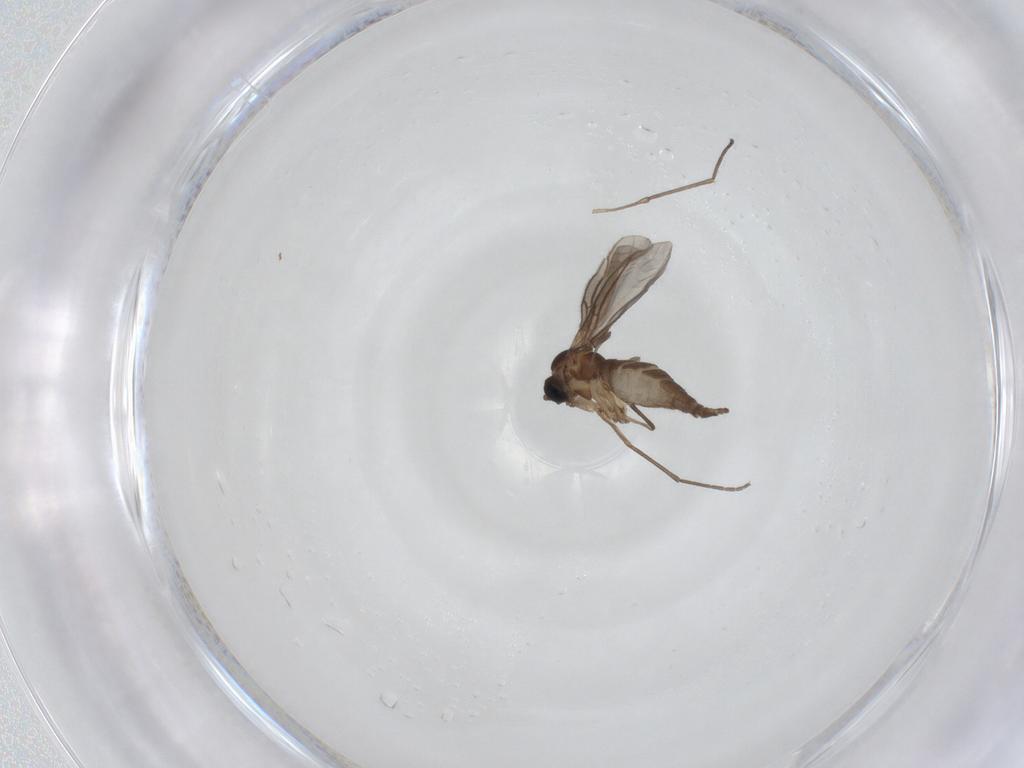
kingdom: Animalia
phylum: Arthropoda
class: Insecta
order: Diptera
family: Sciaridae
